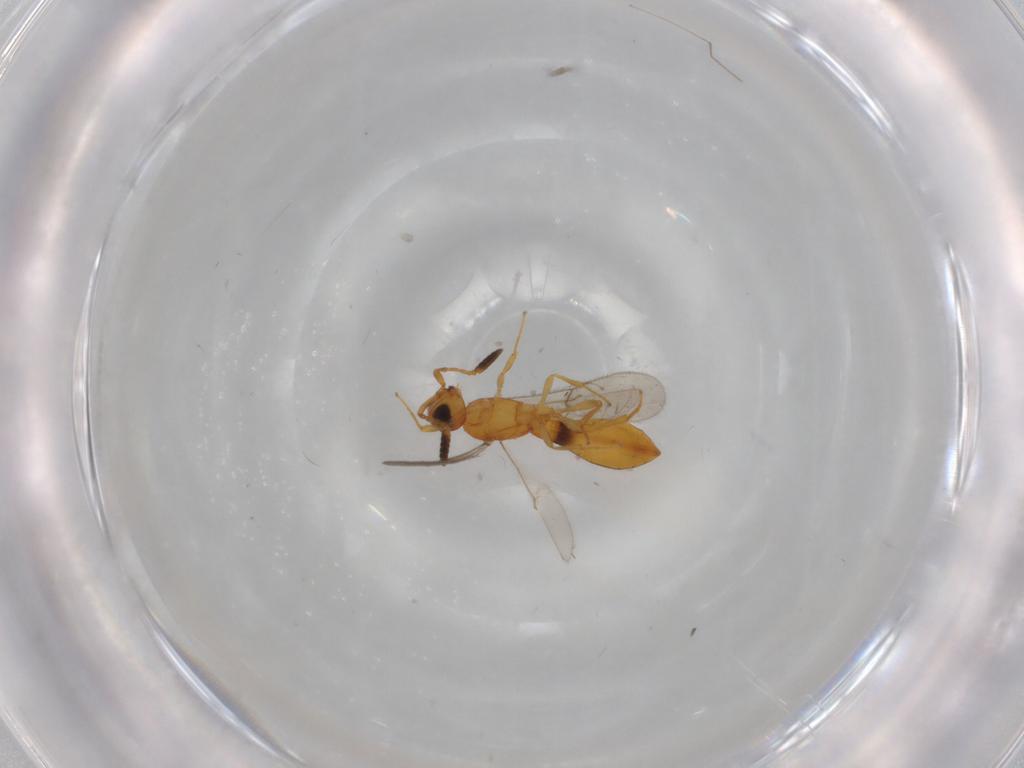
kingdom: Animalia
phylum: Arthropoda
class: Insecta
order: Hymenoptera
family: Scelionidae
